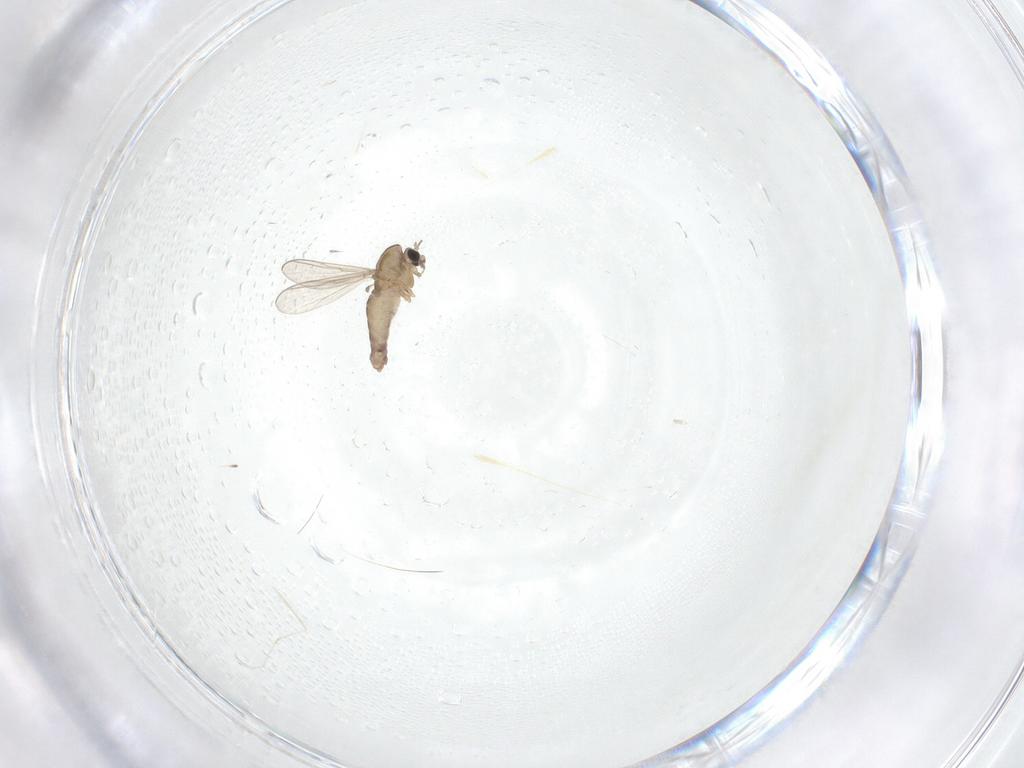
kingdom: Animalia
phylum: Arthropoda
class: Insecta
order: Diptera
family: Chironomidae
